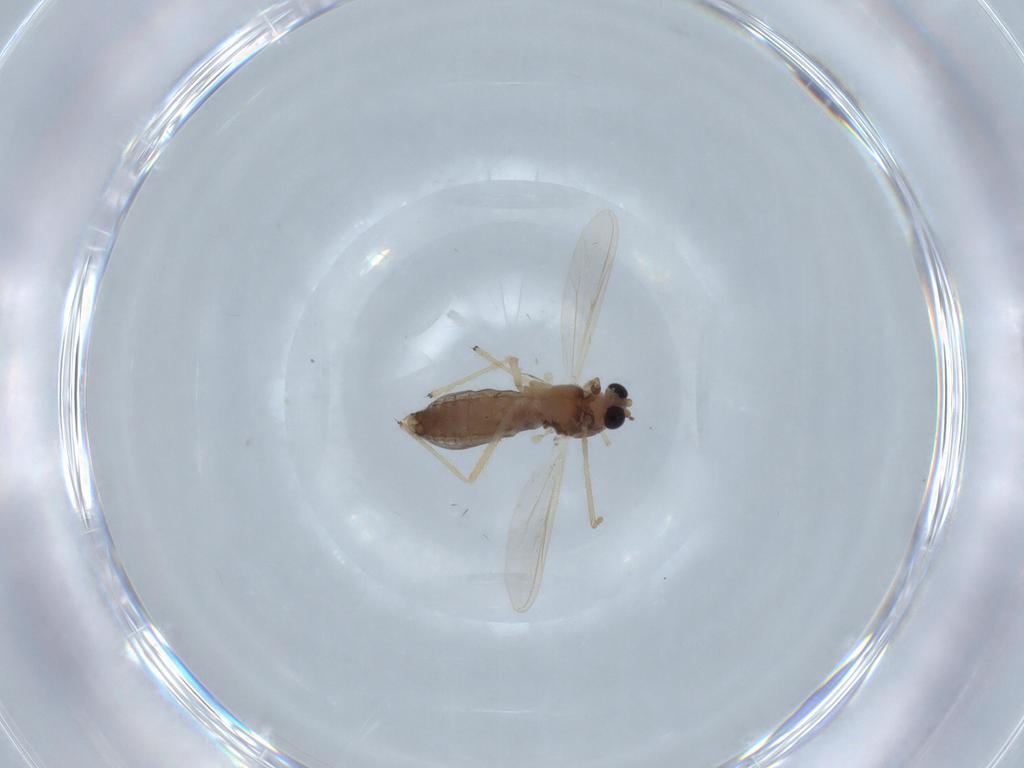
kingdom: Animalia
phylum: Arthropoda
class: Insecta
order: Diptera
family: Chironomidae
